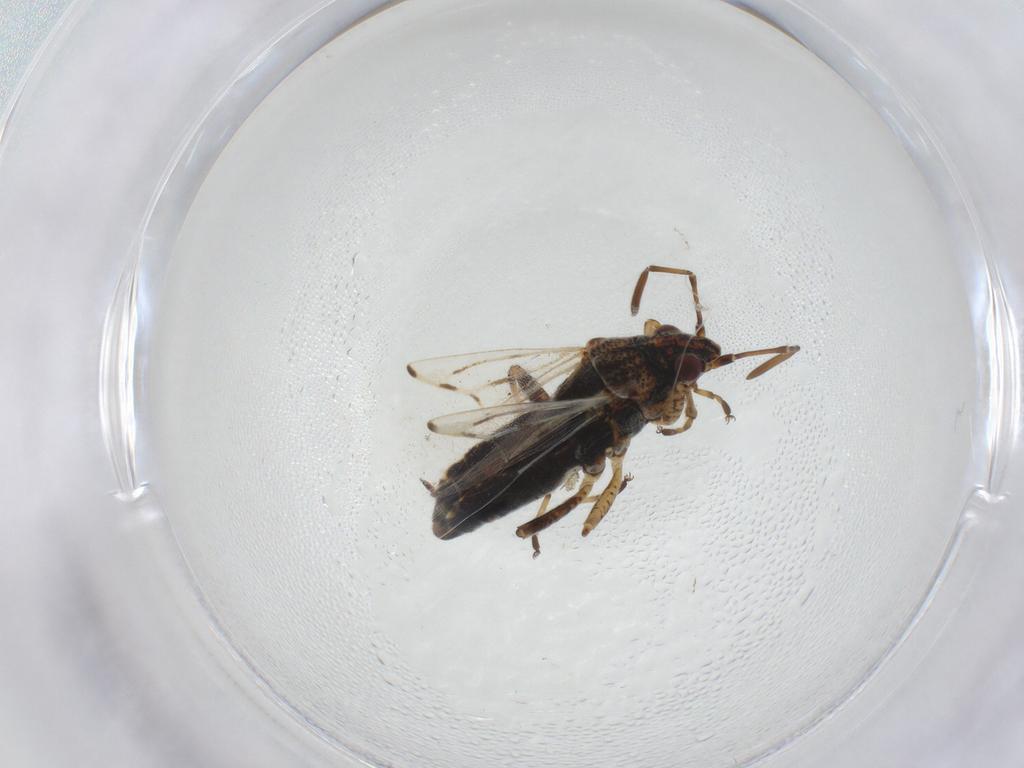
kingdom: Animalia
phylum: Arthropoda
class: Insecta
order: Hemiptera
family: Lygaeidae
